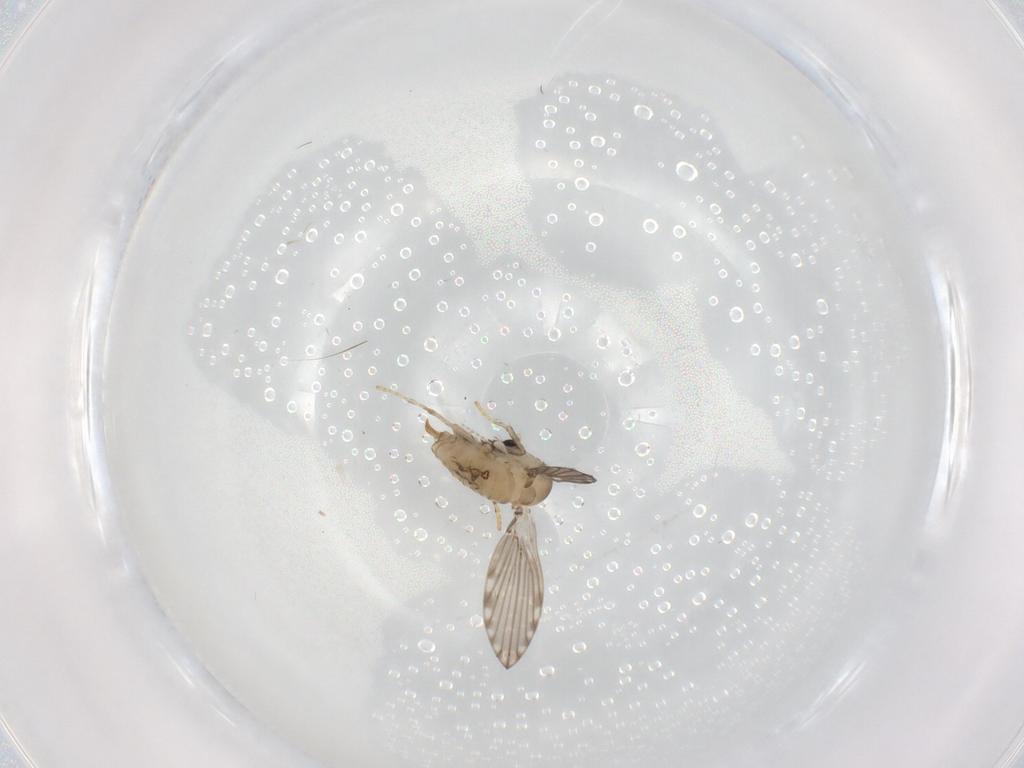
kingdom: Animalia
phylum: Arthropoda
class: Insecta
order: Diptera
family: Psychodidae
